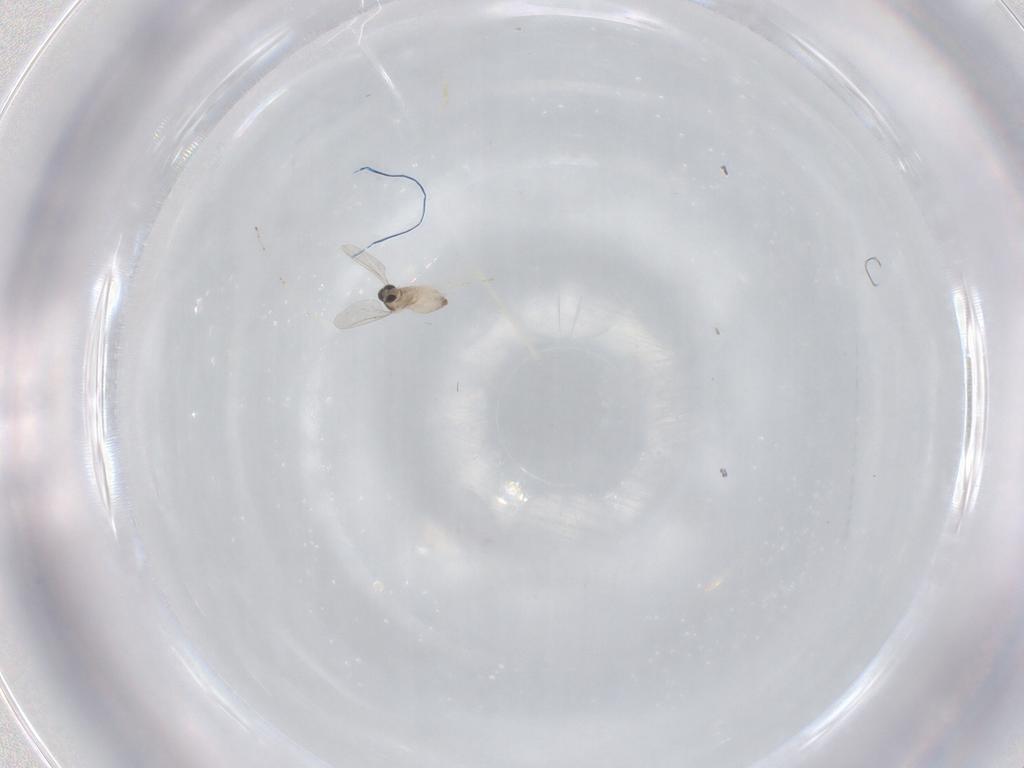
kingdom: Animalia
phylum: Arthropoda
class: Insecta
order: Diptera
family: Cecidomyiidae
